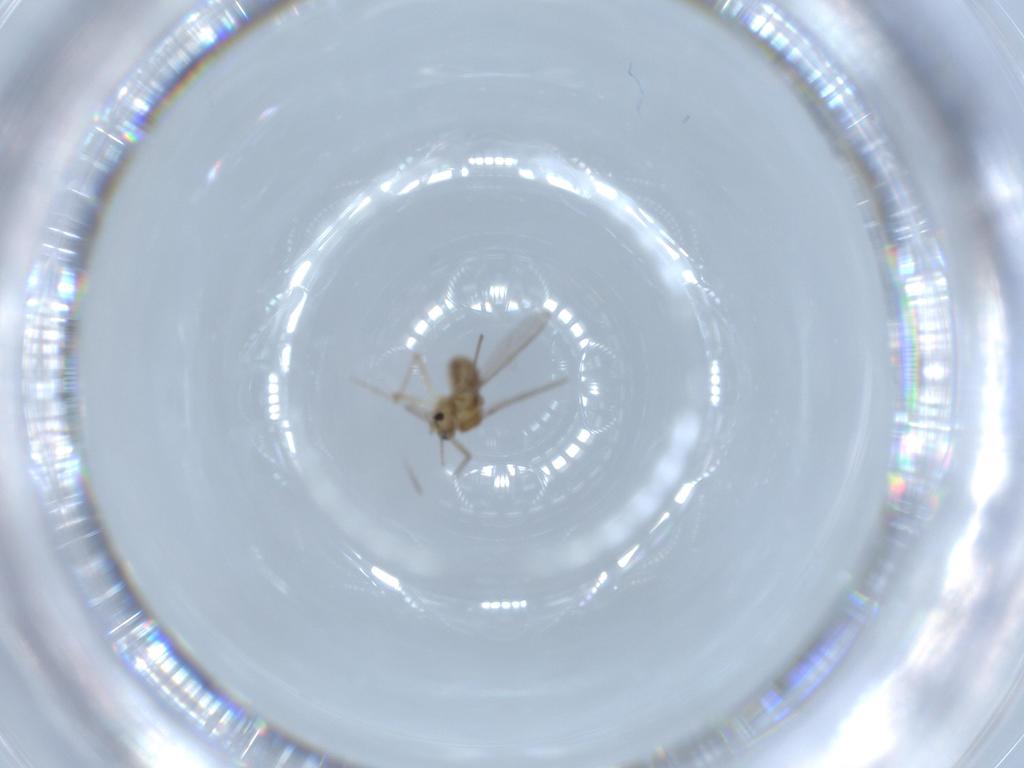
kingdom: Animalia
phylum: Arthropoda
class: Insecta
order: Diptera
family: Chironomidae
